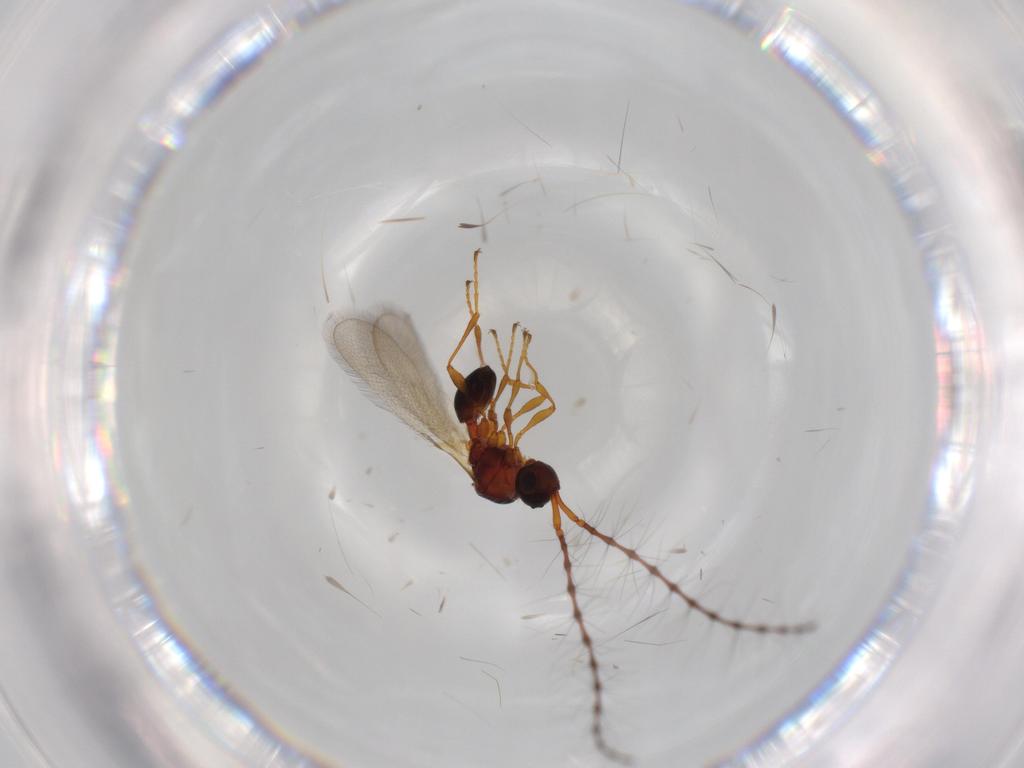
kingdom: Animalia
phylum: Arthropoda
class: Insecta
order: Hymenoptera
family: Diapriidae
